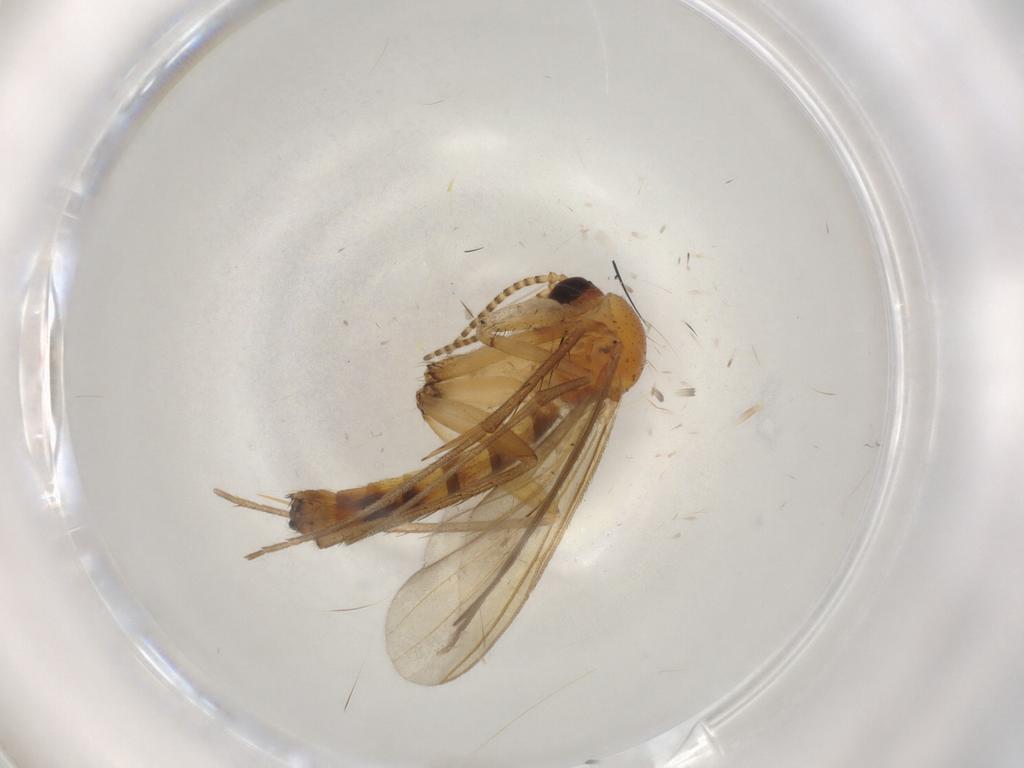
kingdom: Animalia
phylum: Arthropoda
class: Insecta
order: Diptera
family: Mycetophilidae
